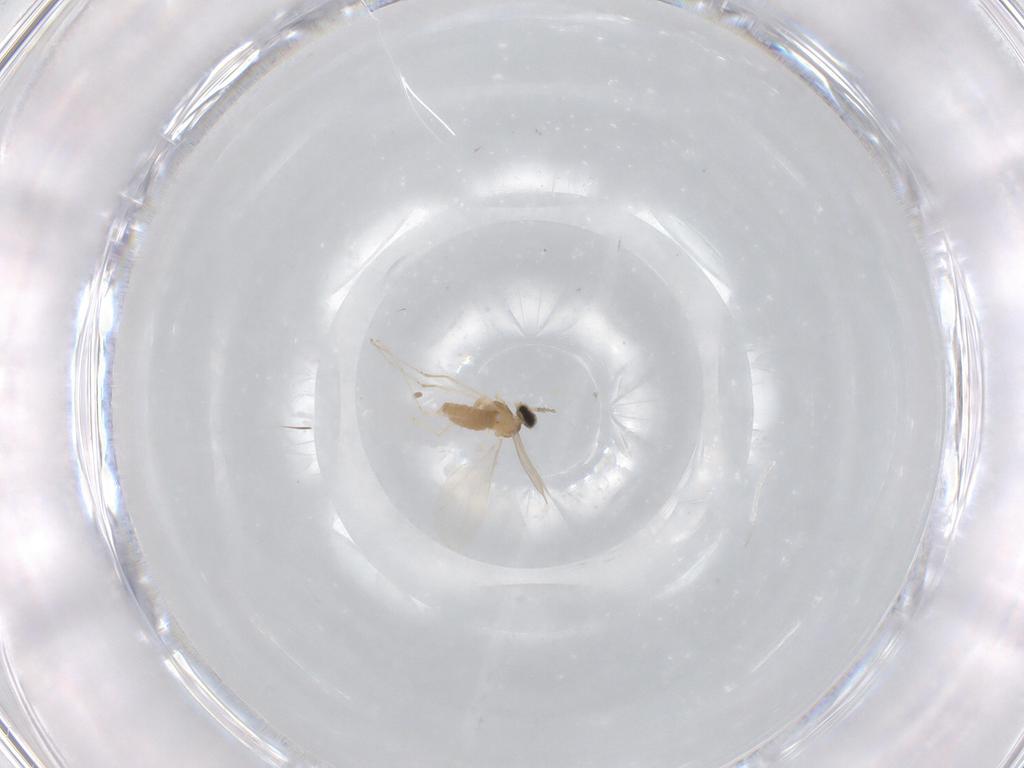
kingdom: Animalia
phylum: Arthropoda
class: Insecta
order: Diptera
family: Cecidomyiidae
